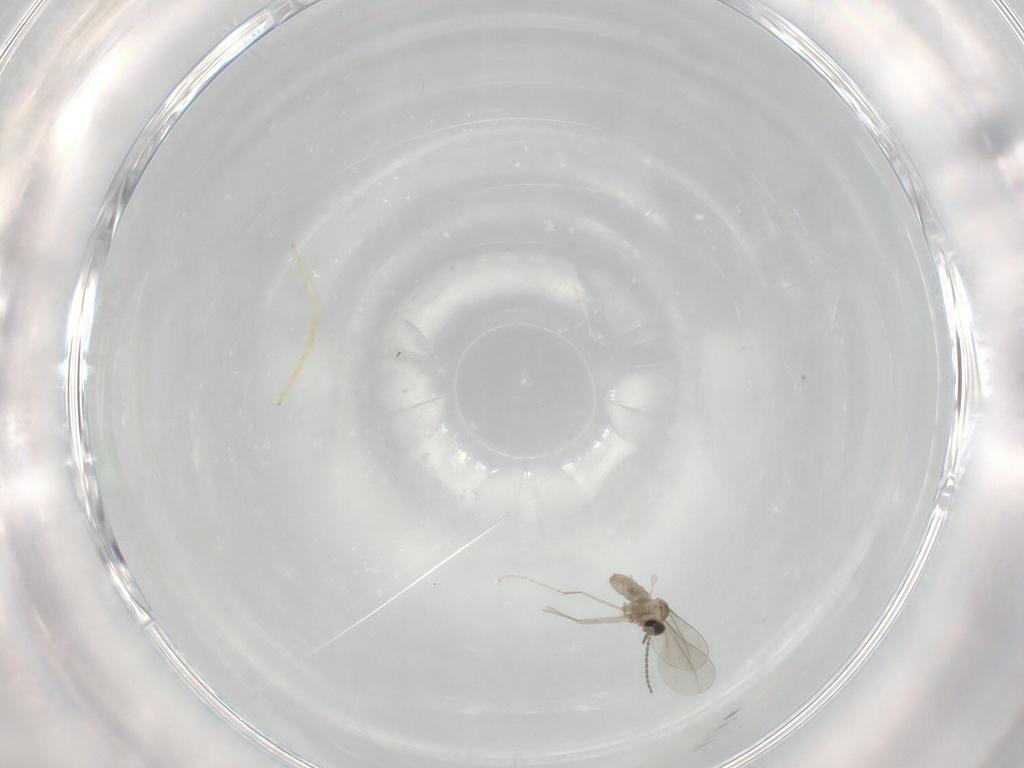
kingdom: Animalia
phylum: Arthropoda
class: Insecta
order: Diptera
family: Cecidomyiidae
